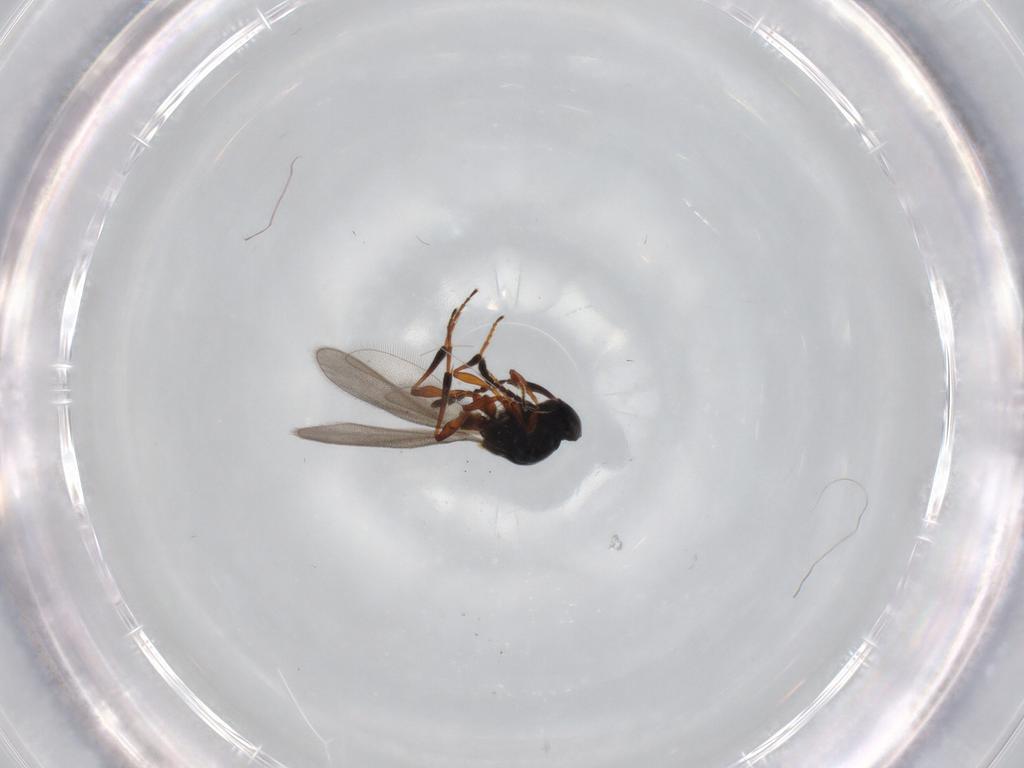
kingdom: Animalia
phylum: Arthropoda
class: Insecta
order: Hymenoptera
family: Platygastridae
